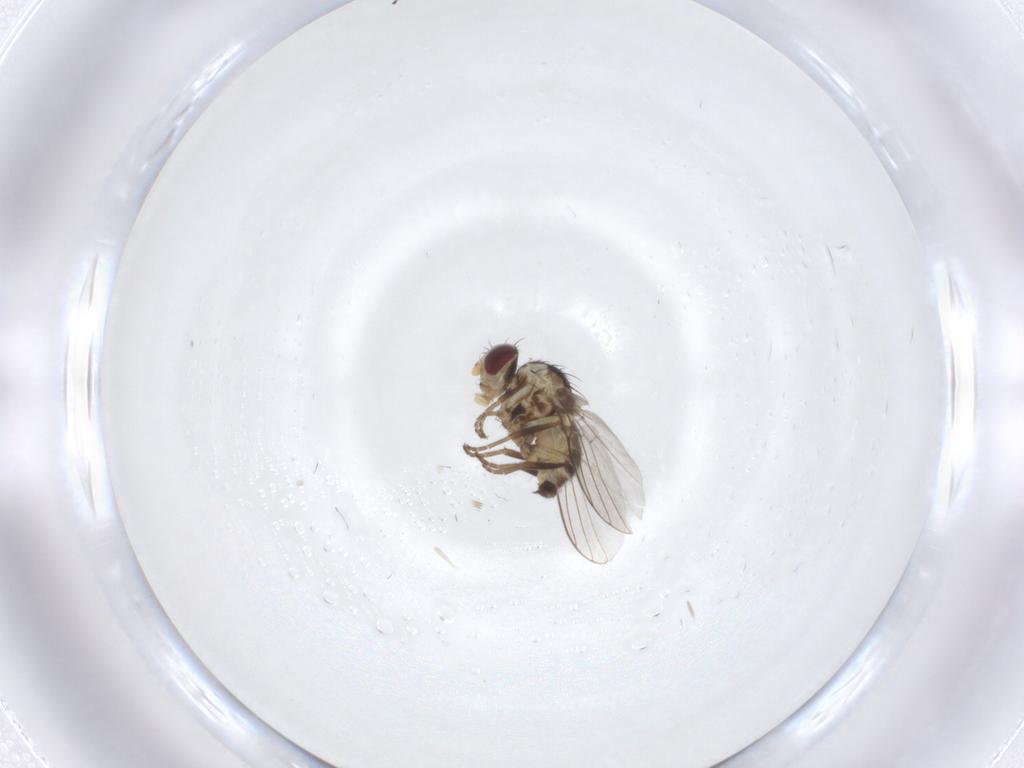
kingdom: Animalia
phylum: Arthropoda
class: Insecta
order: Diptera
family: Agromyzidae
